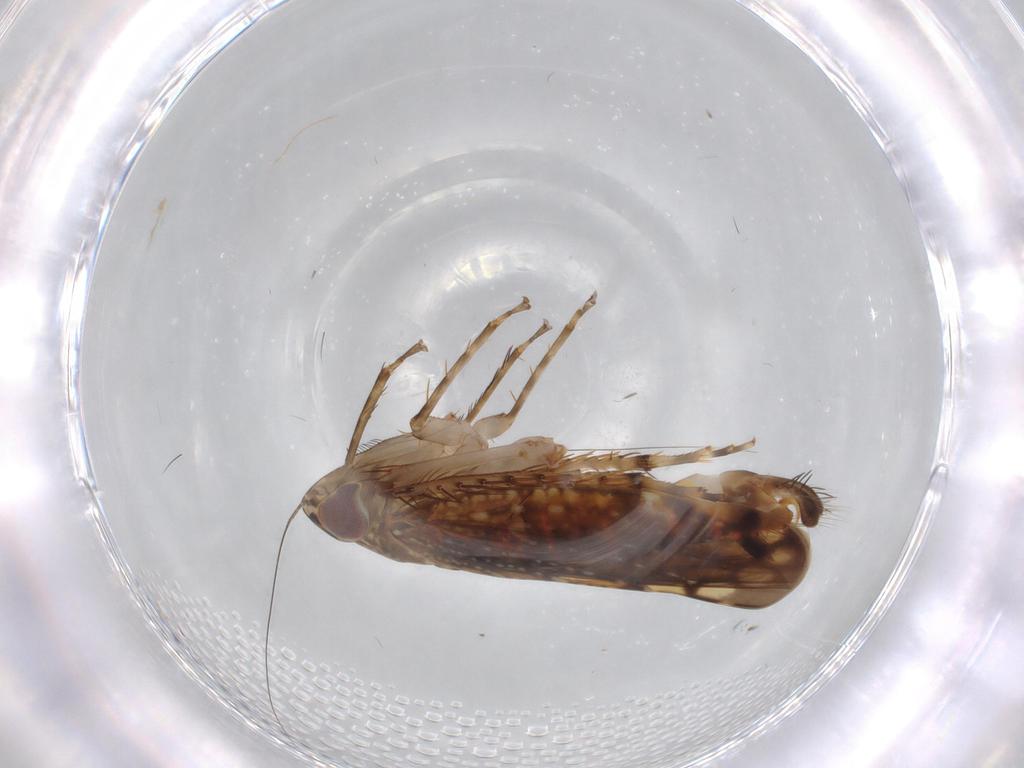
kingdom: Animalia
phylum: Arthropoda
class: Insecta
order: Hemiptera
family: Cicadellidae
